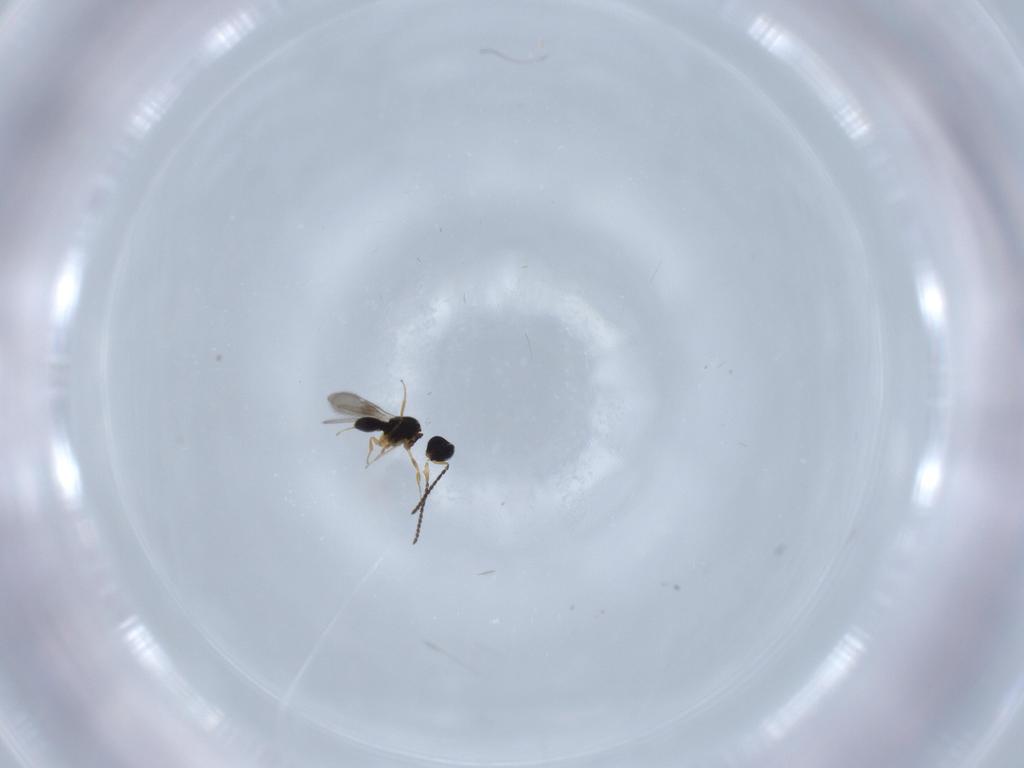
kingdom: Animalia
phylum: Arthropoda
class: Insecta
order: Hymenoptera
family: Scelionidae
